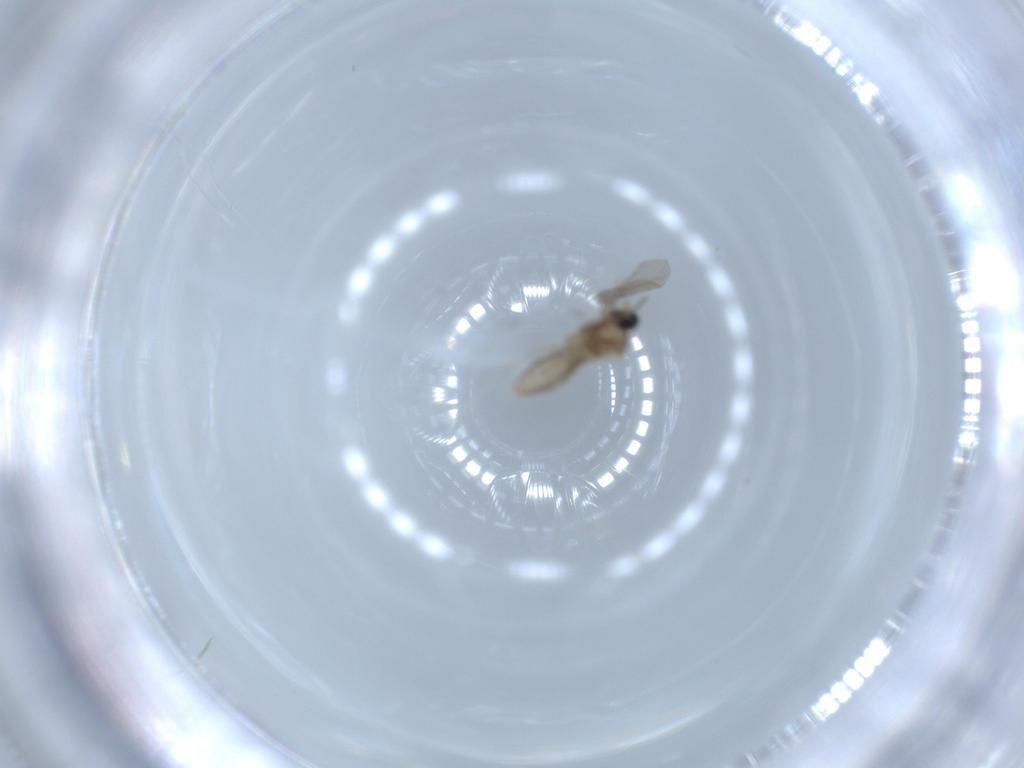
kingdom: Animalia
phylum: Arthropoda
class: Insecta
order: Diptera
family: Cecidomyiidae
